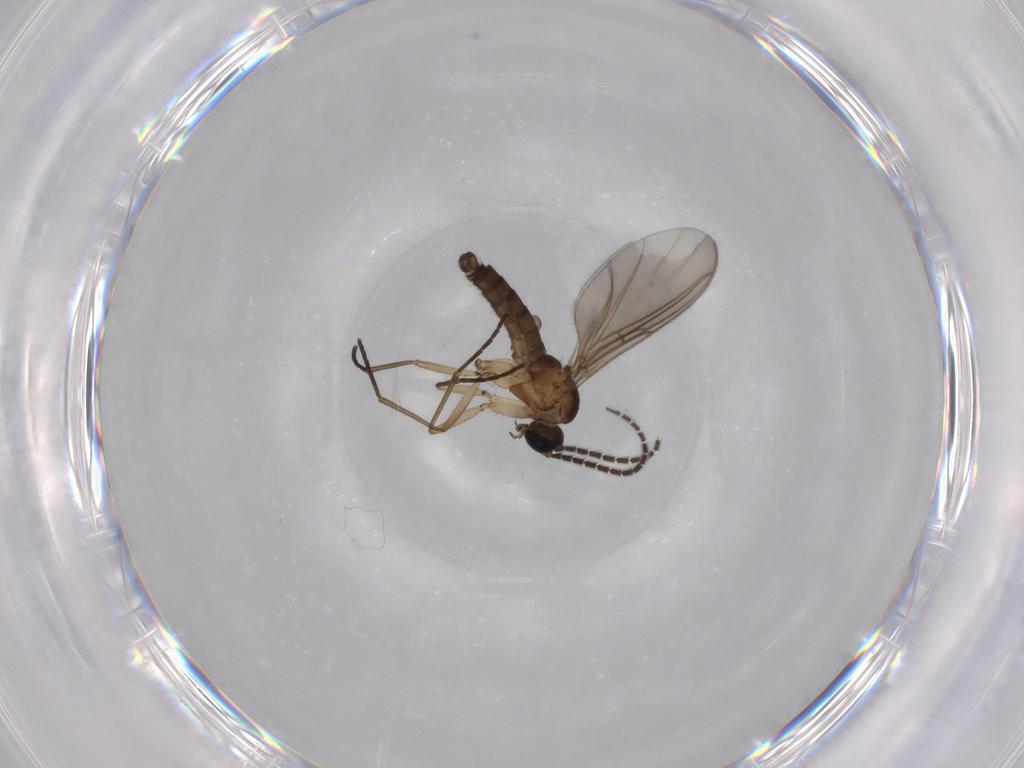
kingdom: Animalia
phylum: Arthropoda
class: Insecta
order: Diptera
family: Sciaridae
